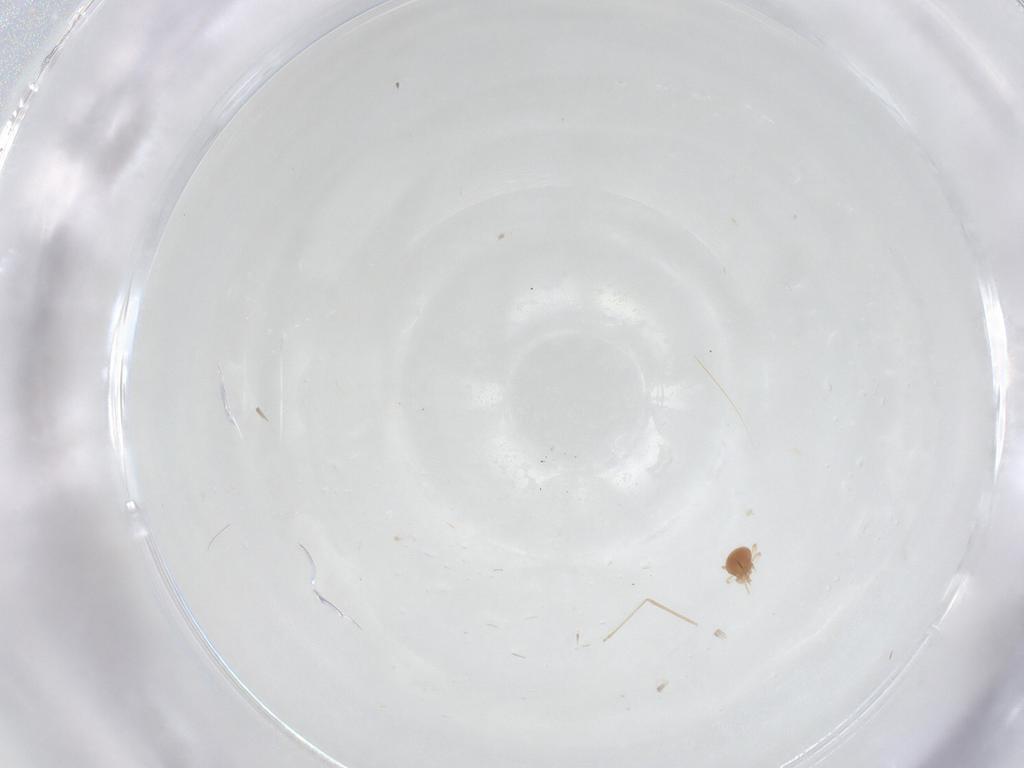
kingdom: Animalia
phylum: Arthropoda
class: Insecta
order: Diptera
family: Cecidomyiidae
